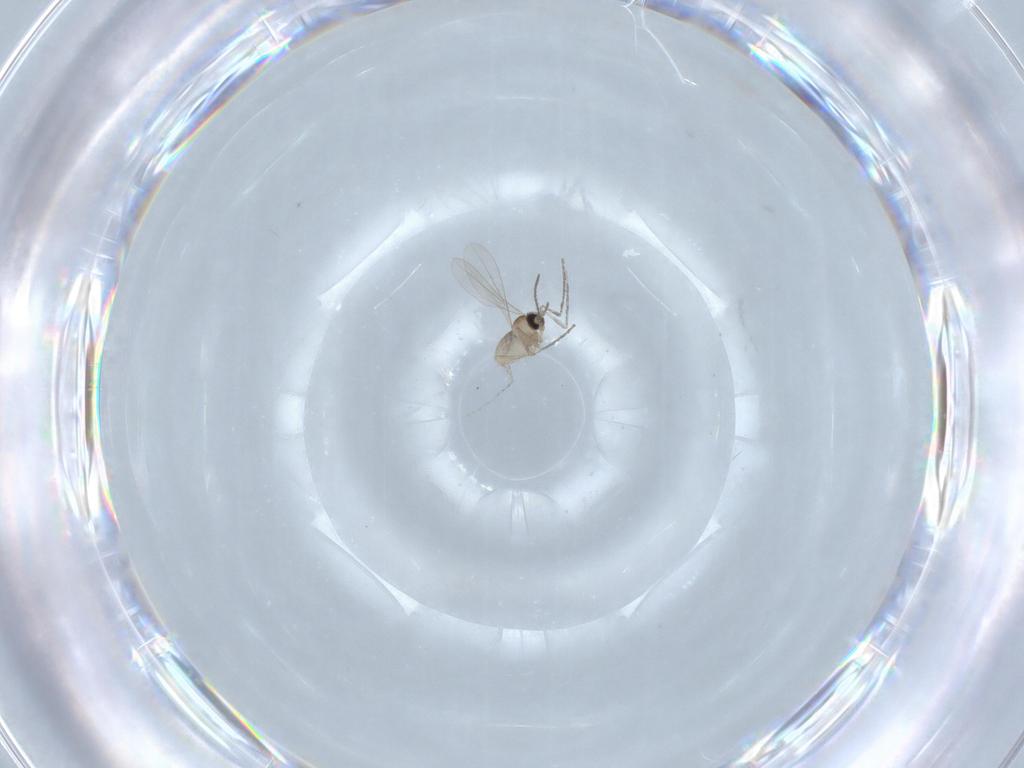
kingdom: Animalia
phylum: Arthropoda
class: Insecta
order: Diptera
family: Cecidomyiidae
